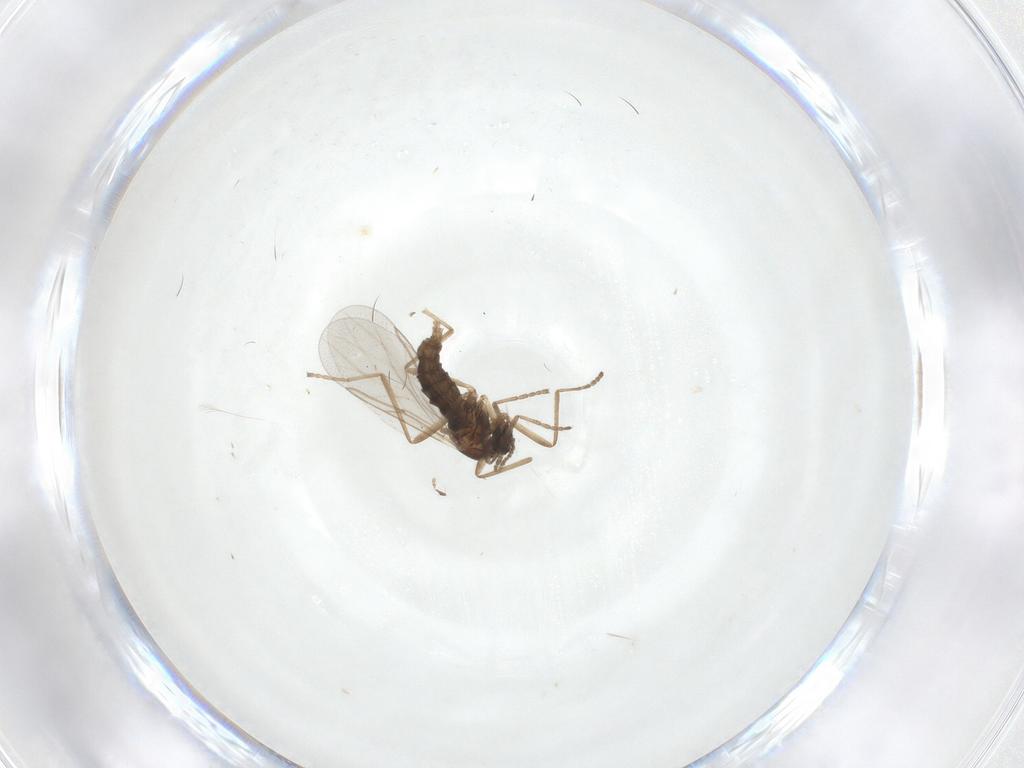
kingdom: Animalia
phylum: Arthropoda
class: Insecta
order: Diptera
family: Cecidomyiidae
